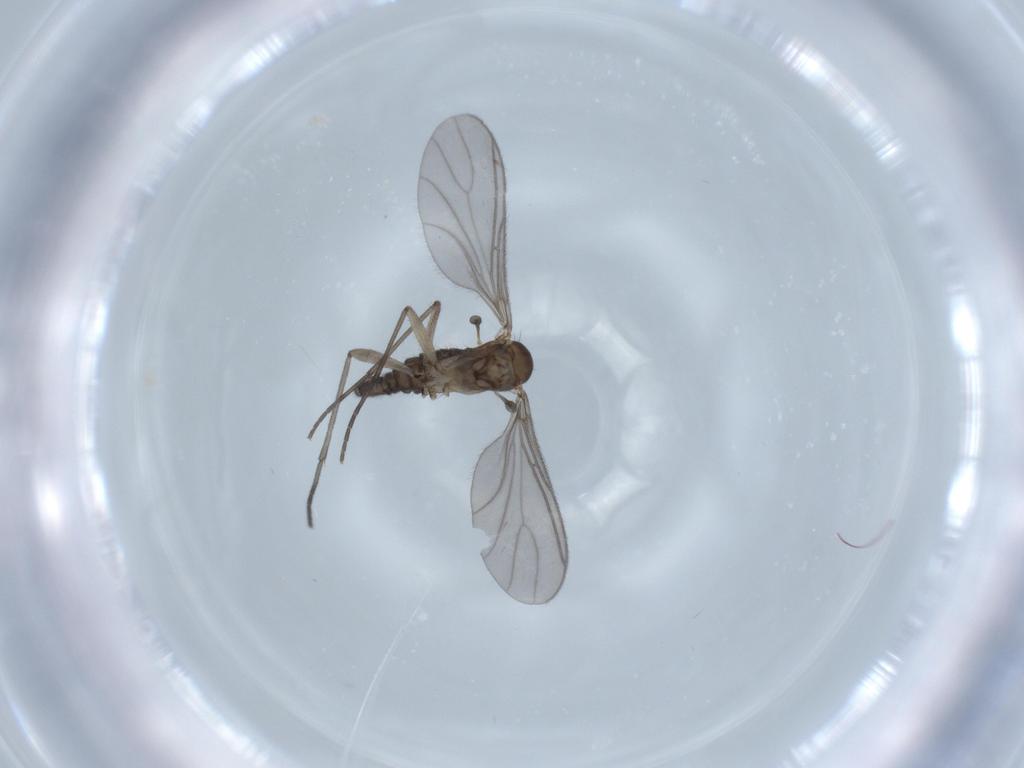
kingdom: Animalia
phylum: Arthropoda
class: Insecta
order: Diptera
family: Sciaridae
